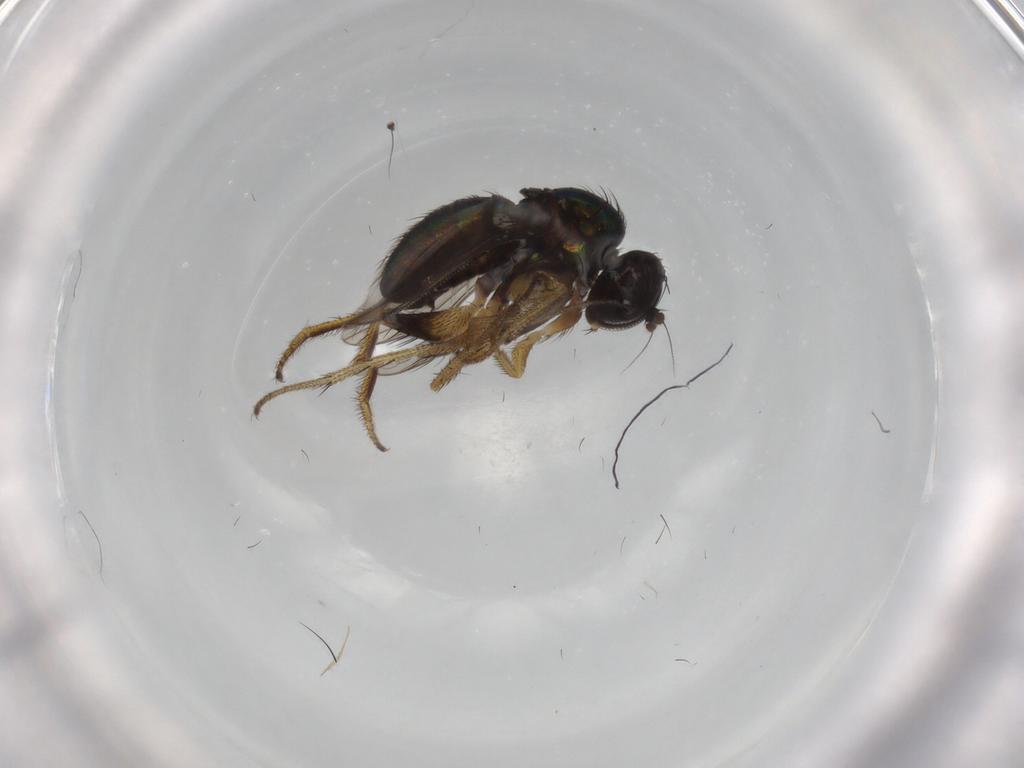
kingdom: Animalia
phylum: Arthropoda
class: Insecta
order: Diptera
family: Dolichopodidae
